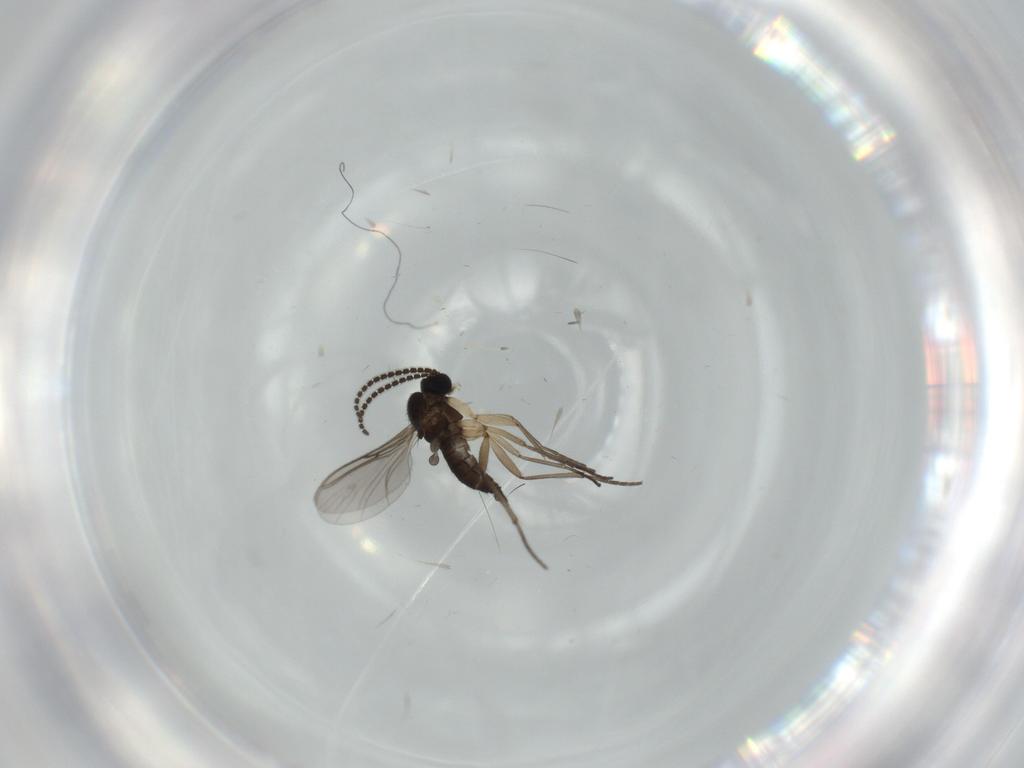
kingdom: Animalia
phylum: Arthropoda
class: Insecta
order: Diptera
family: Sciaridae
